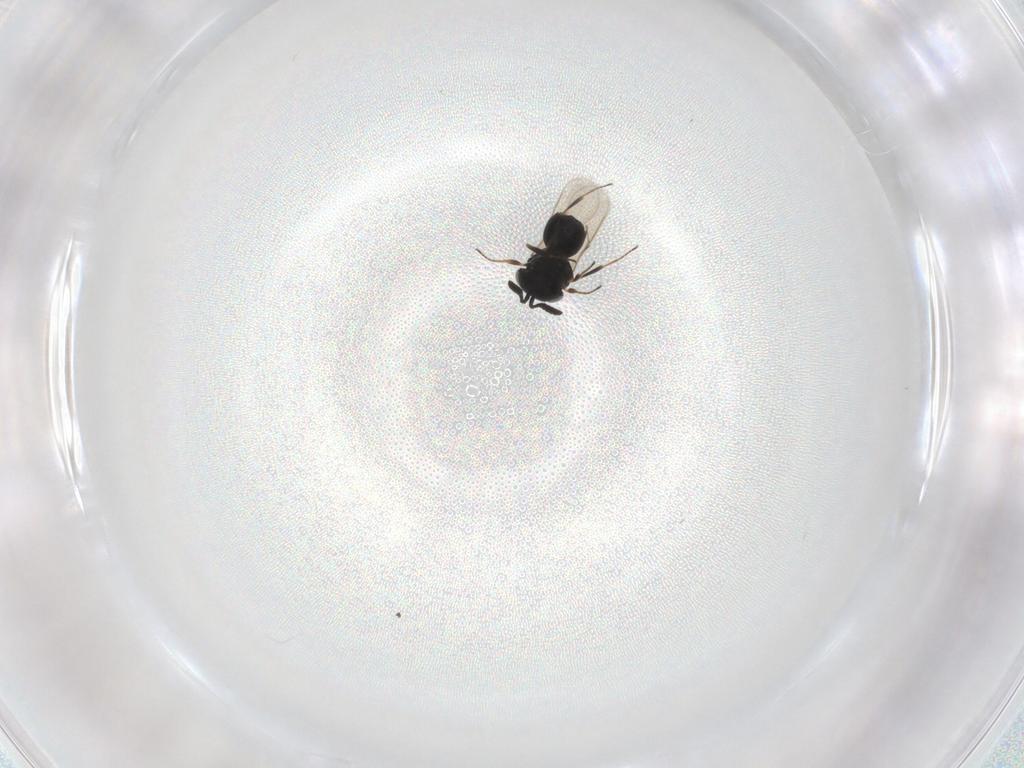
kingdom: Animalia
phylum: Arthropoda
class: Insecta
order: Hymenoptera
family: Scelionidae
